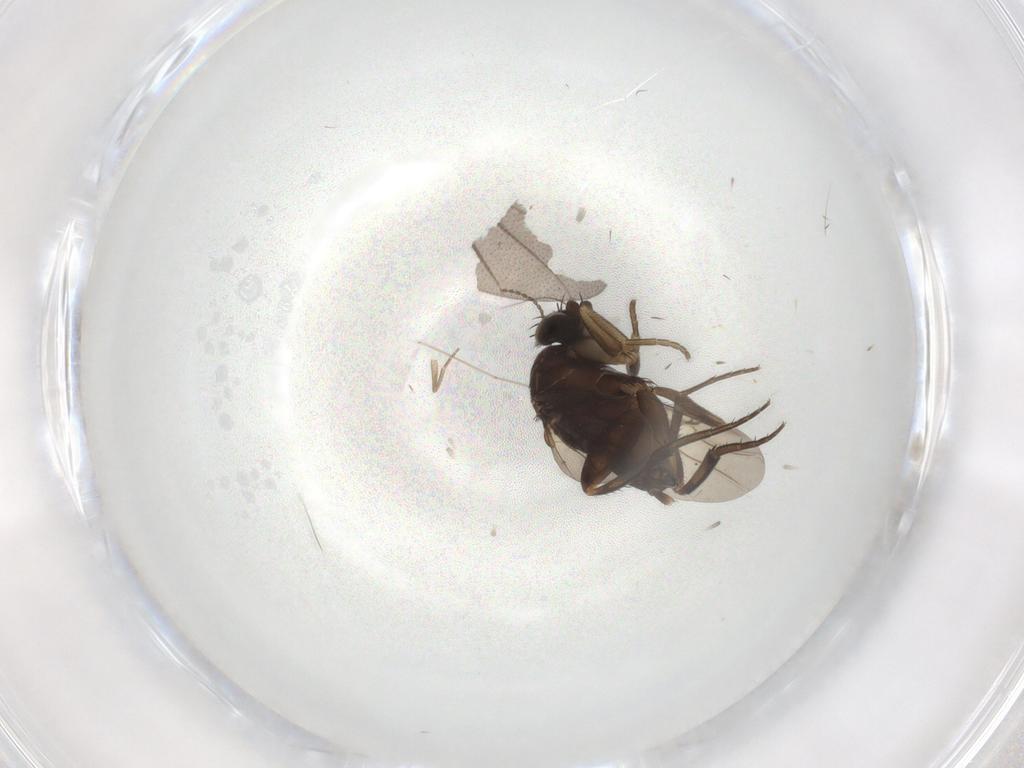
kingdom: Animalia
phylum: Arthropoda
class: Insecta
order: Diptera
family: Phoridae
